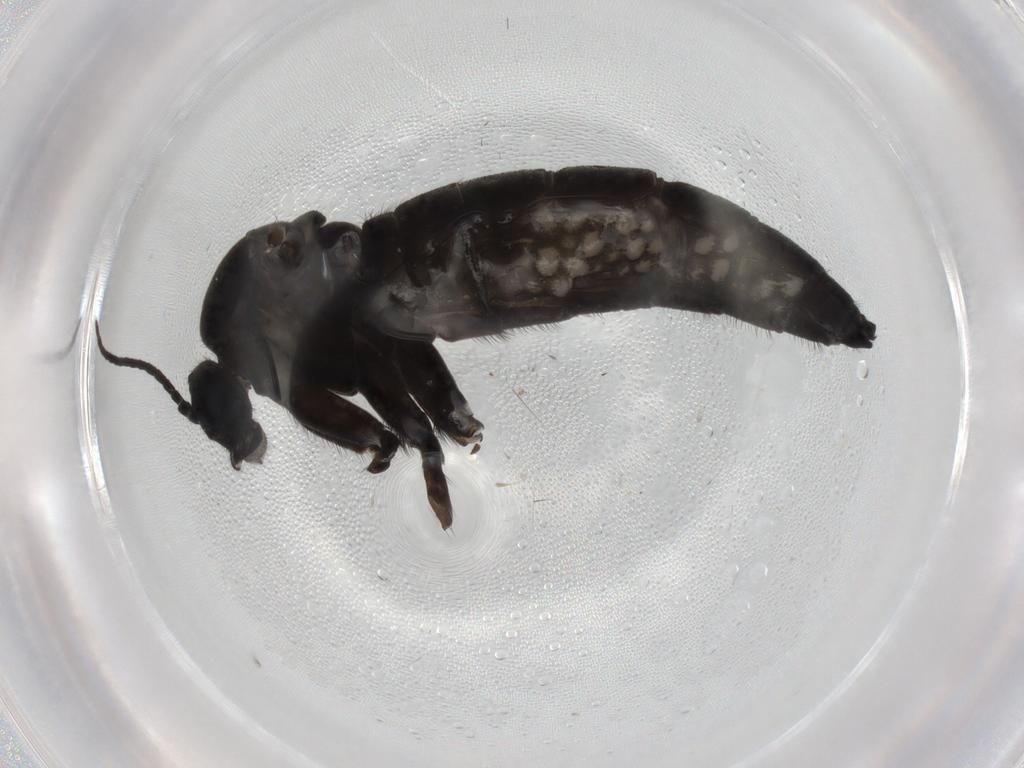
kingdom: Animalia
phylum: Arthropoda
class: Insecta
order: Diptera
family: Sciaridae
